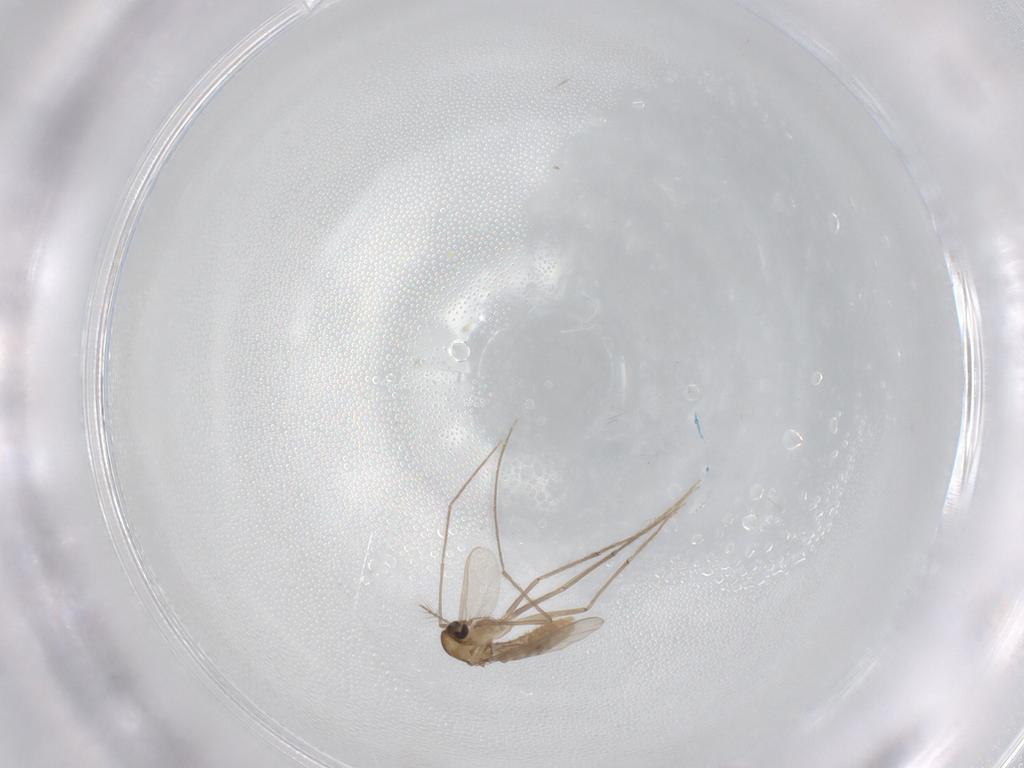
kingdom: Animalia
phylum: Arthropoda
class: Insecta
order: Diptera
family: Chironomidae
